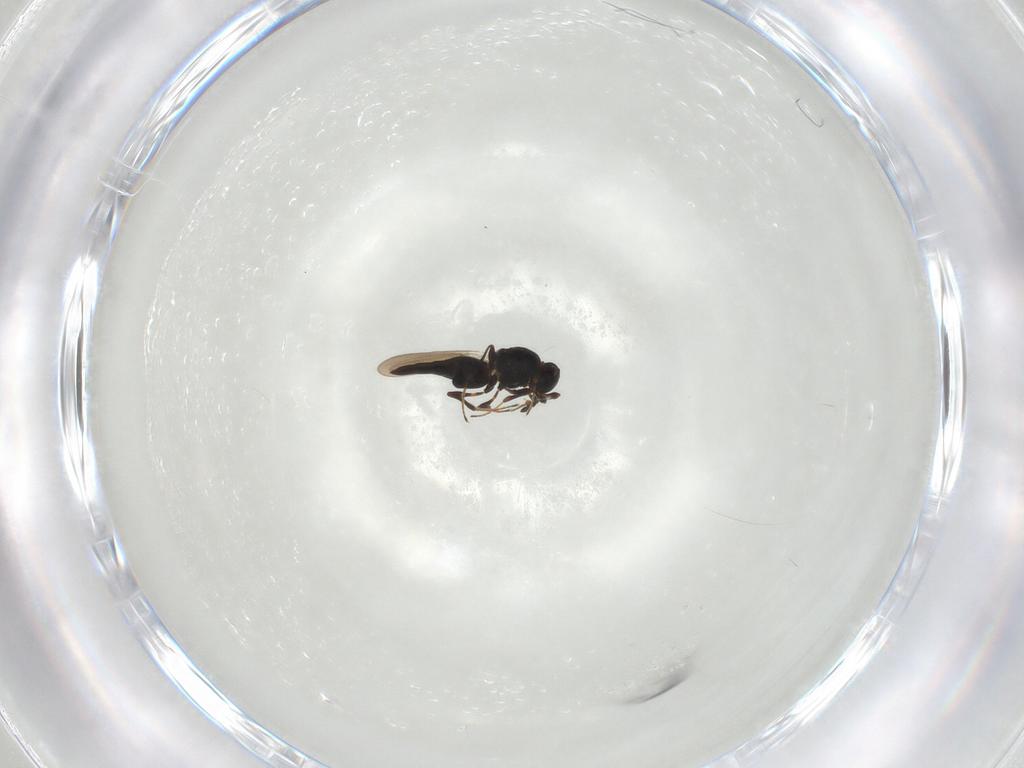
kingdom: Animalia
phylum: Arthropoda
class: Insecta
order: Hymenoptera
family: Platygastridae
